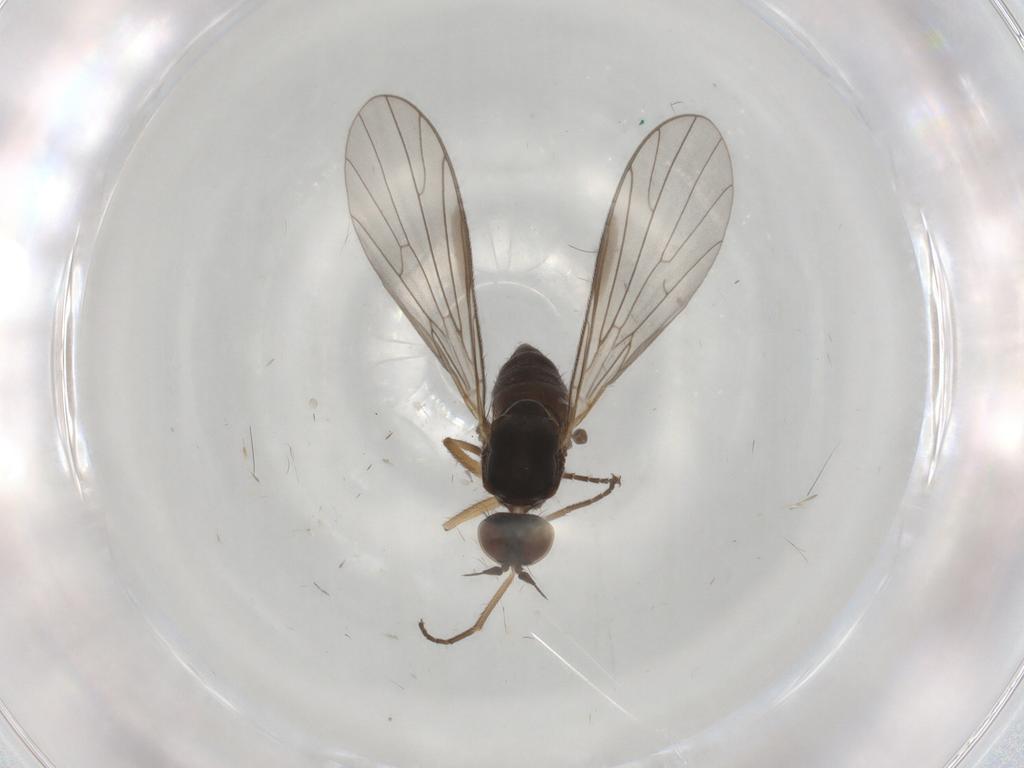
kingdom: Animalia
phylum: Arthropoda
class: Insecta
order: Diptera
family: Empididae
